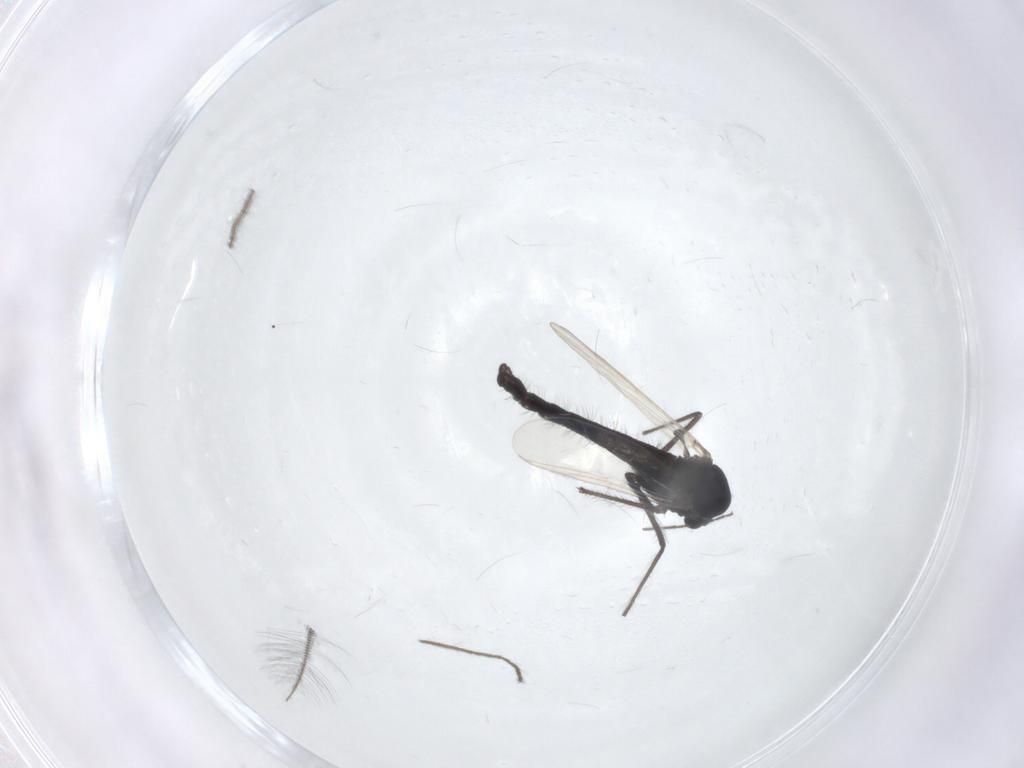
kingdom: Animalia
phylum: Arthropoda
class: Insecta
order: Diptera
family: Chironomidae
